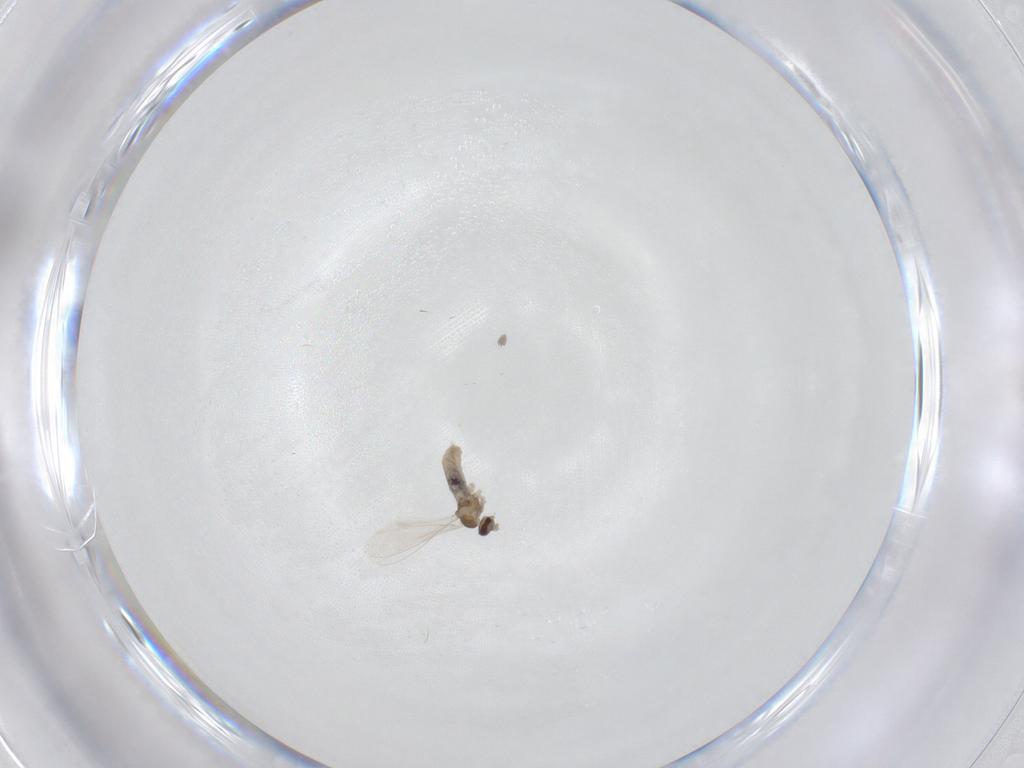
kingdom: Animalia
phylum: Arthropoda
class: Insecta
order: Diptera
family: Cecidomyiidae
